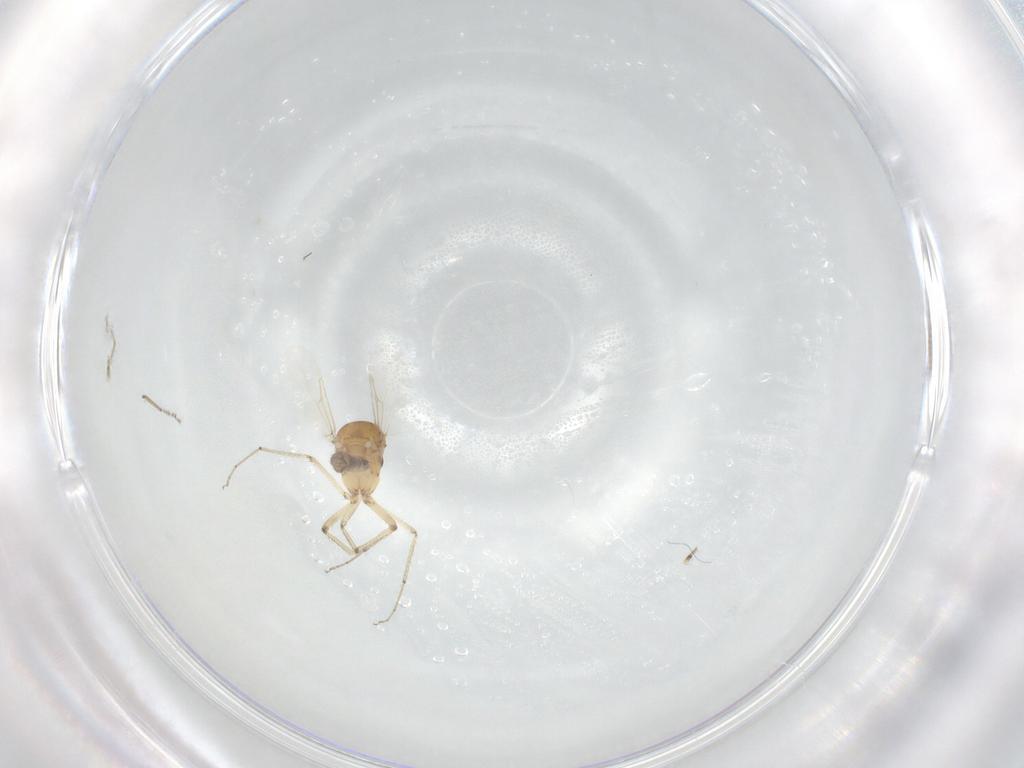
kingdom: Animalia
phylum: Arthropoda
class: Insecta
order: Diptera
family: Ceratopogonidae
